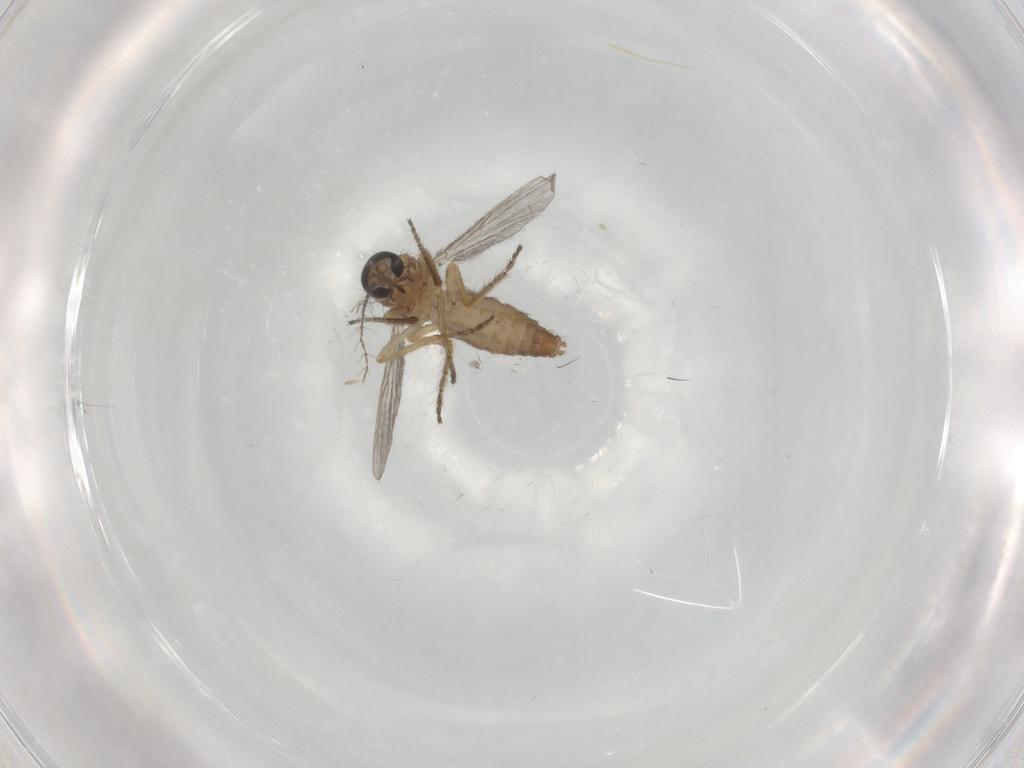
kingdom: Animalia
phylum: Arthropoda
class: Insecta
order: Diptera
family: Ceratopogonidae
